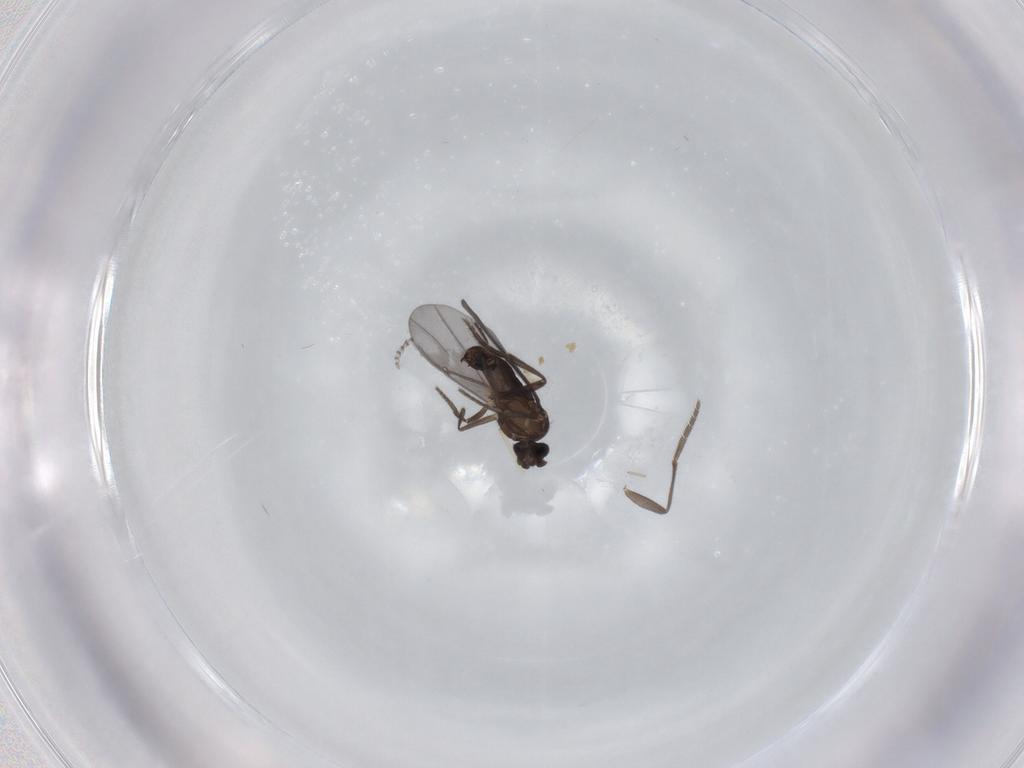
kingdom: Animalia
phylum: Arthropoda
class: Insecta
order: Diptera
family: Phoridae
